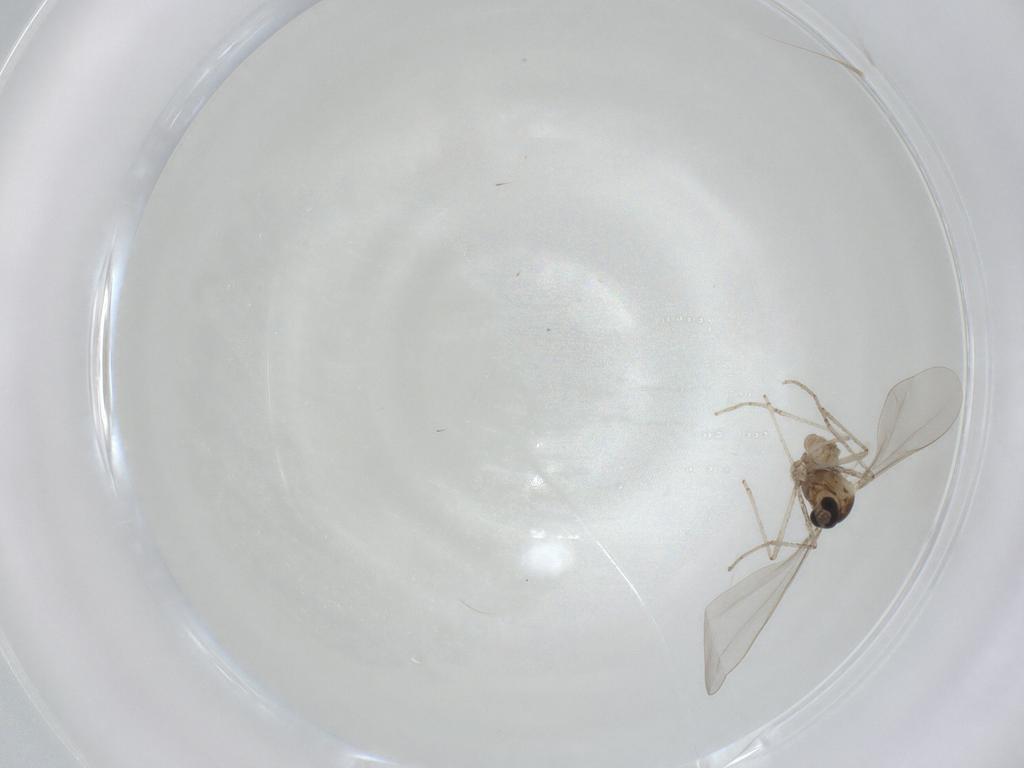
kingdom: Animalia
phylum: Arthropoda
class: Insecta
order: Diptera
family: Cecidomyiidae
